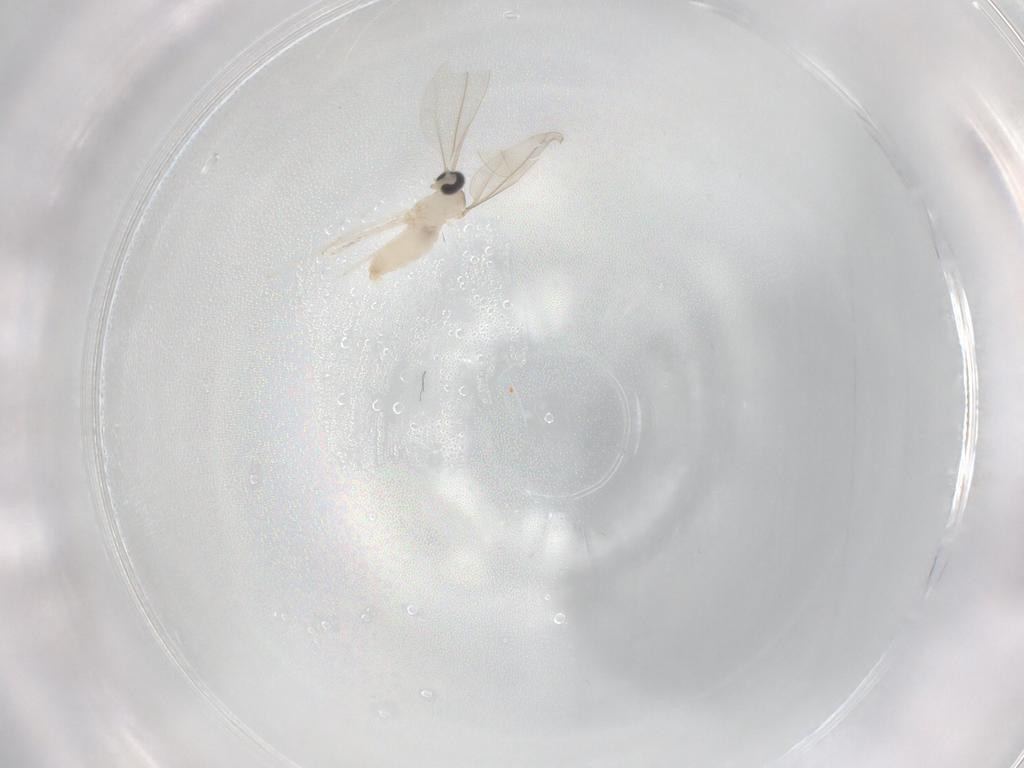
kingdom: Animalia
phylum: Arthropoda
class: Insecta
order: Diptera
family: Cecidomyiidae
